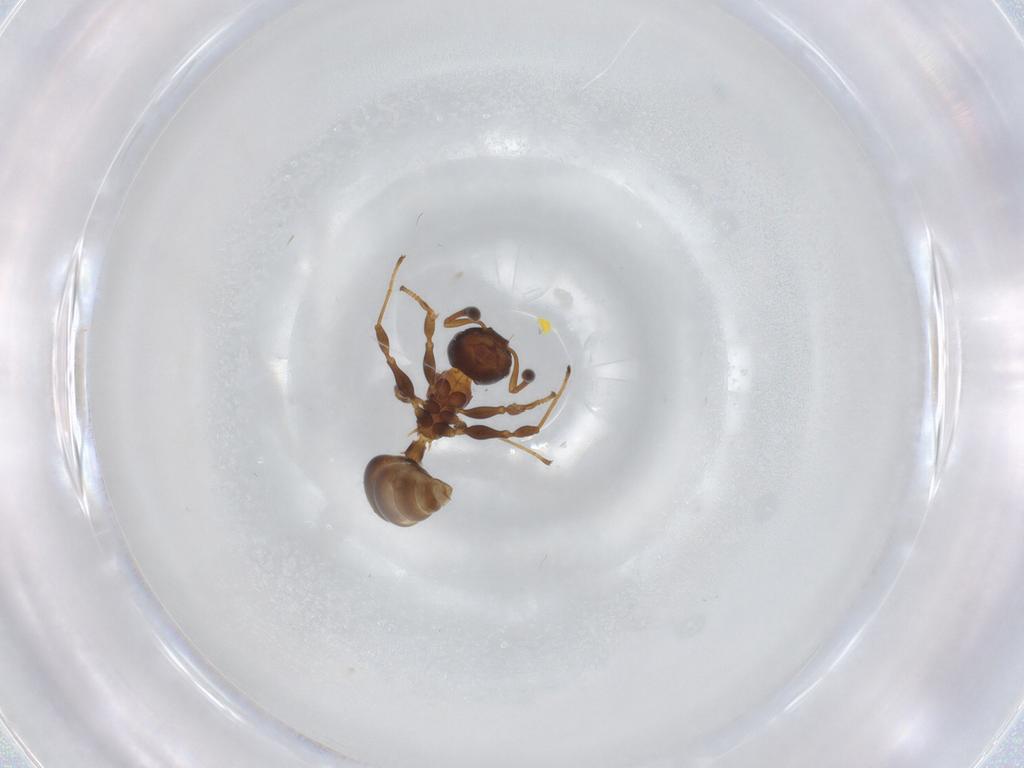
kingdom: Animalia
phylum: Arthropoda
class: Insecta
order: Hymenoptera
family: Formicidae
